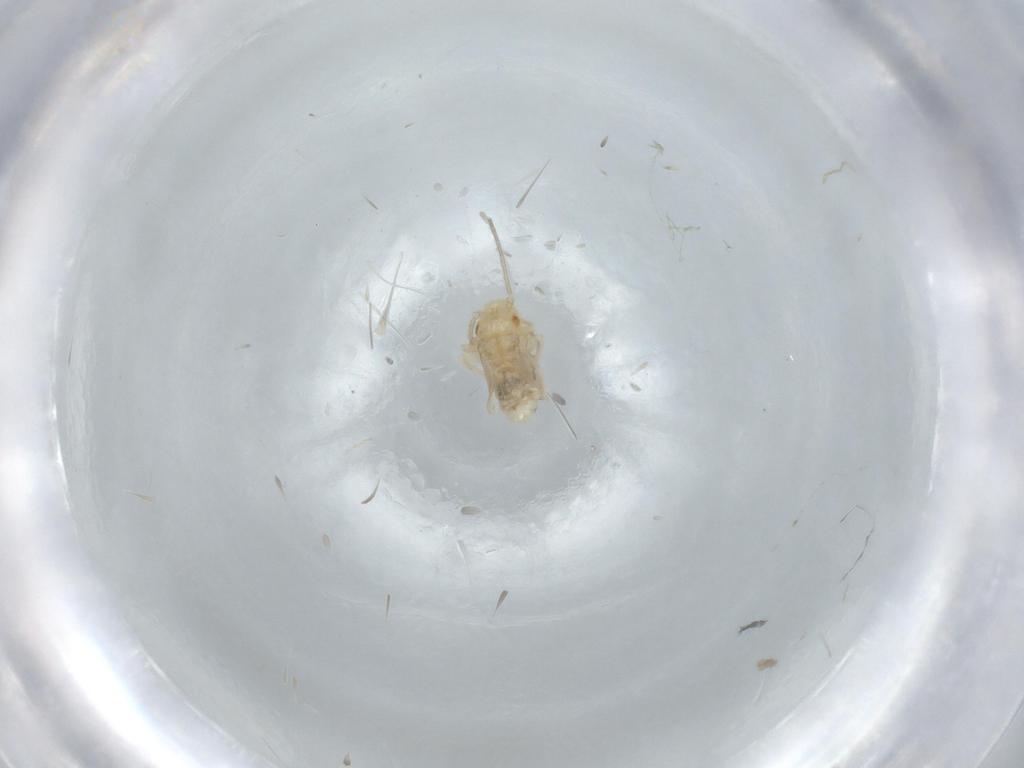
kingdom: Animalia
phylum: Arthropoda
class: Insecta
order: Psocodea
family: Caeciliusidae
